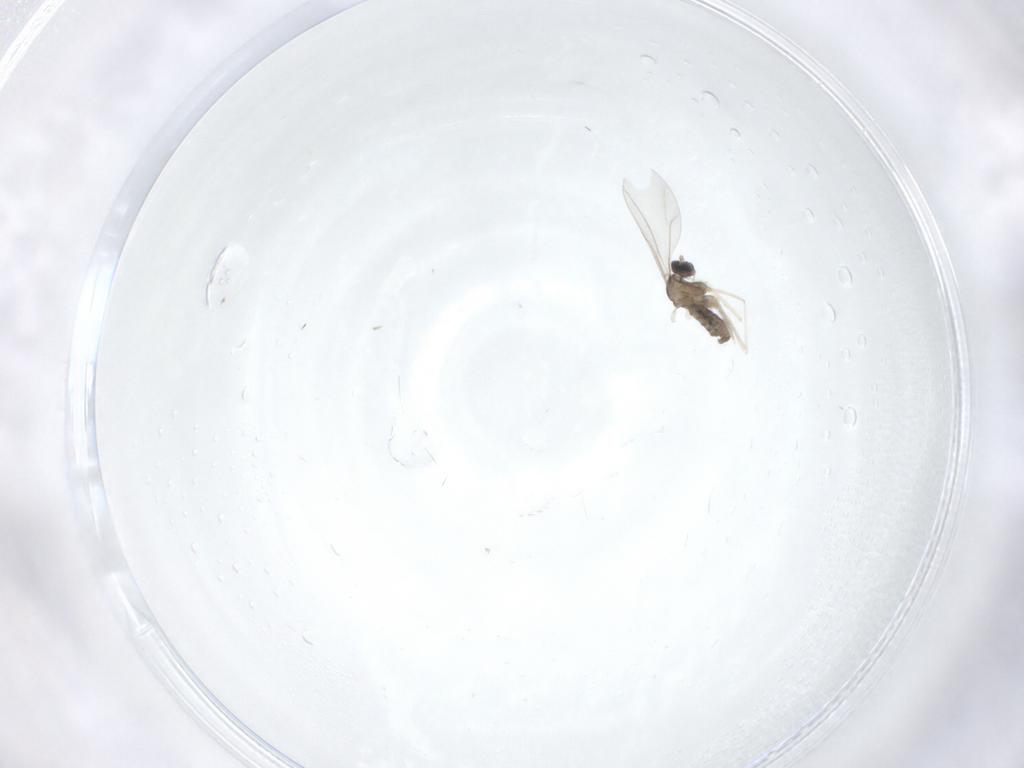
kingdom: Animalia
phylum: Arthropoda
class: Insecta
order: Diptera
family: Cecidomyiidae
